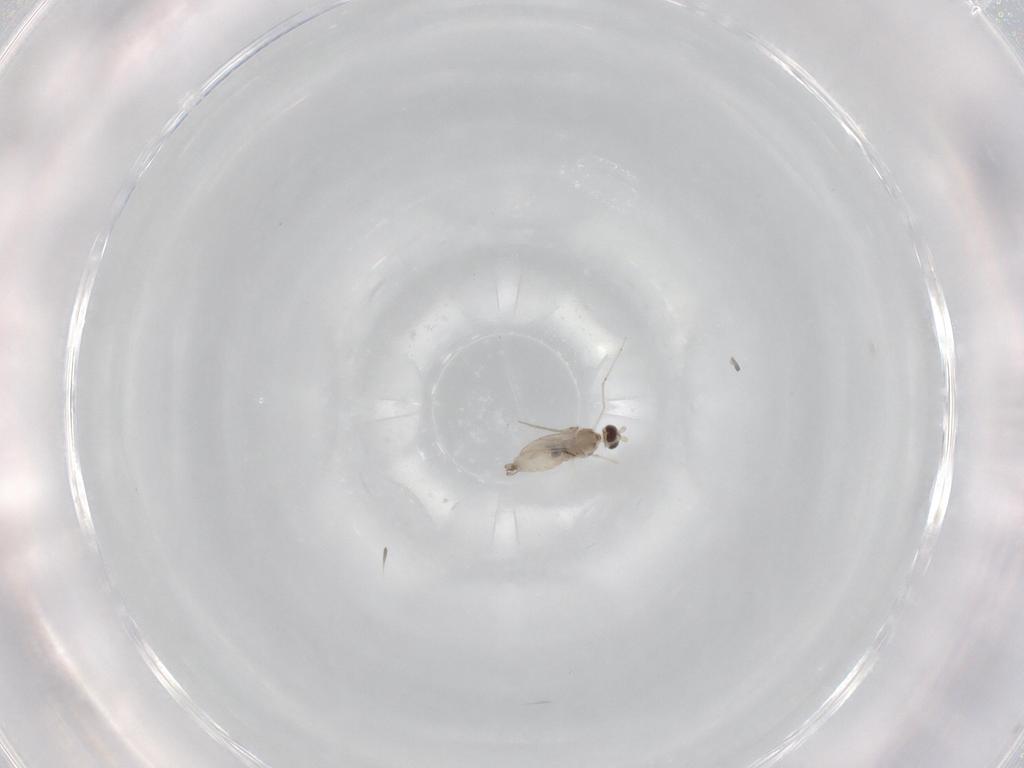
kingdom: Animalia
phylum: Arthropoda
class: Insecta
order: Diptera
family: Cecidomyiidae
